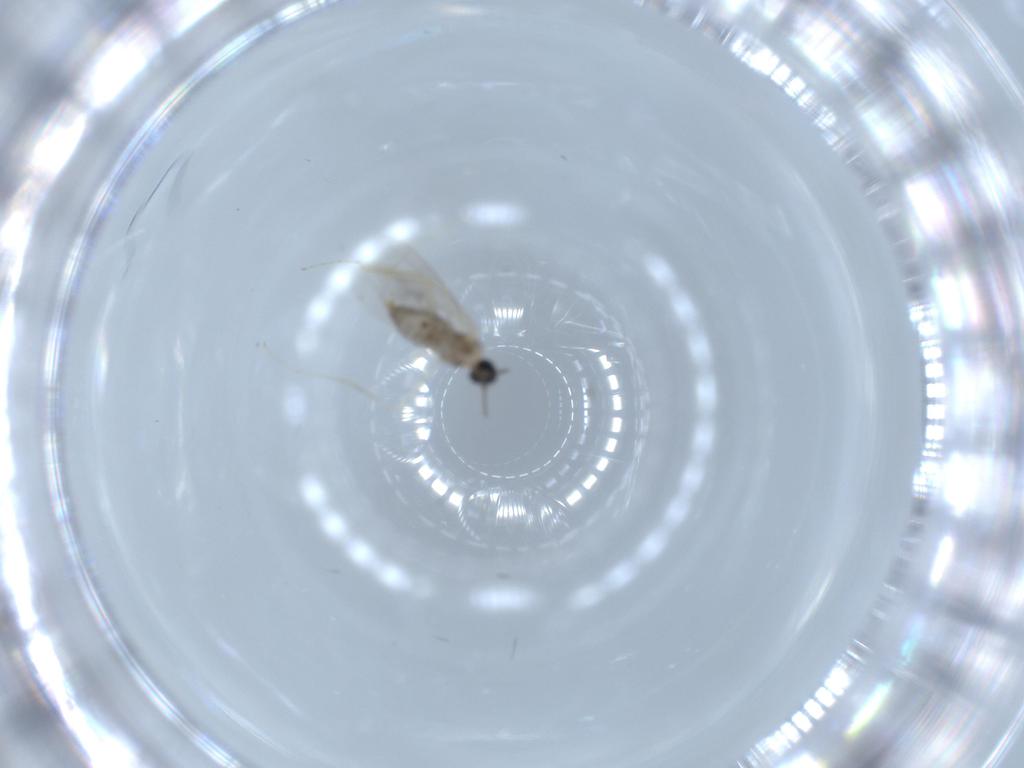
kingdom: Animalia
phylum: Arthropoda
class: Insecta
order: Diptera
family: Cecidomyiidae
